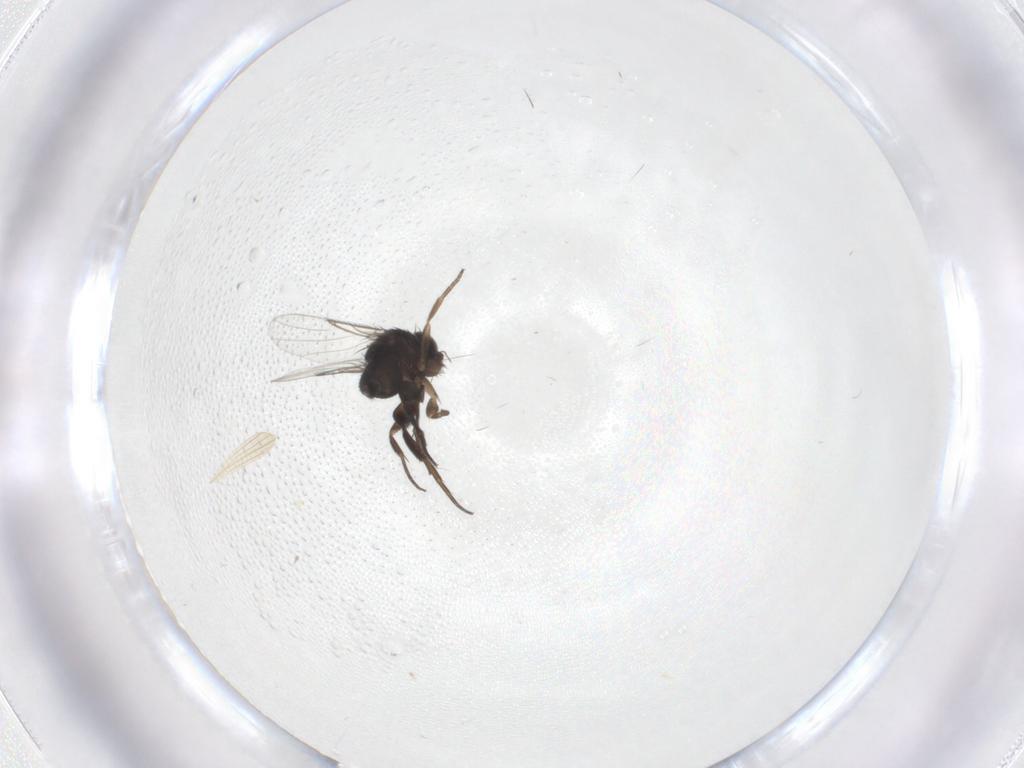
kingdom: Animalia
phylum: Arthropoda
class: Insecta
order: Diptera
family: Phoridae
